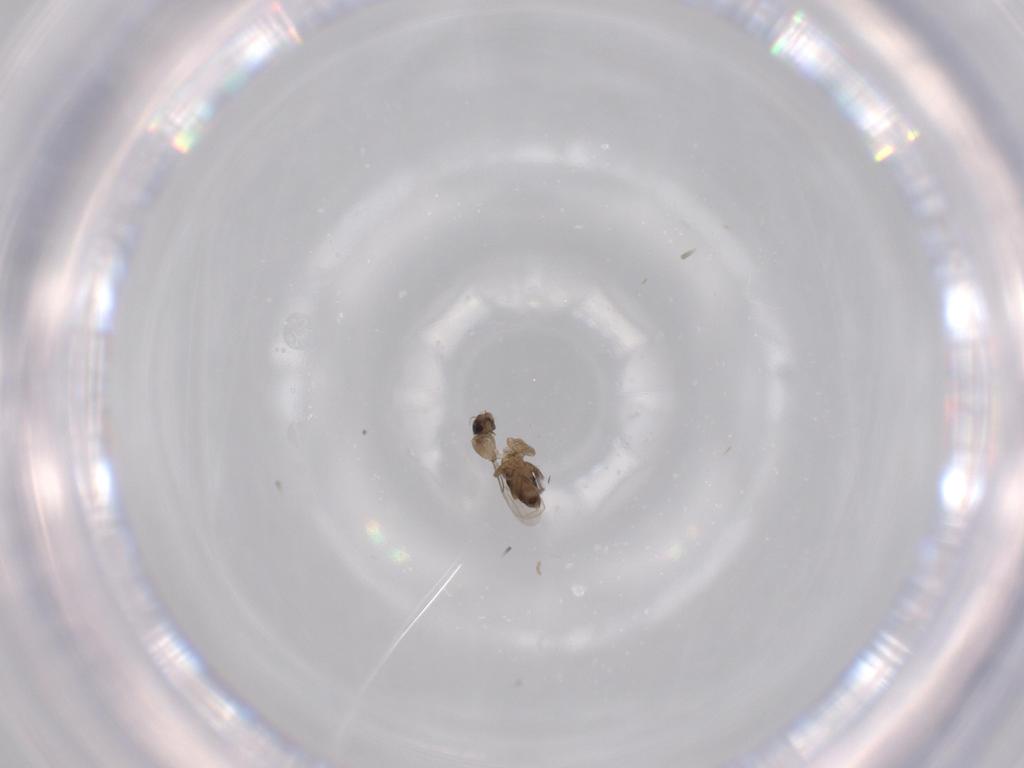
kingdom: Animalia
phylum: Arthropoda
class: Insecta
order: Diptera
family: Phoridae
